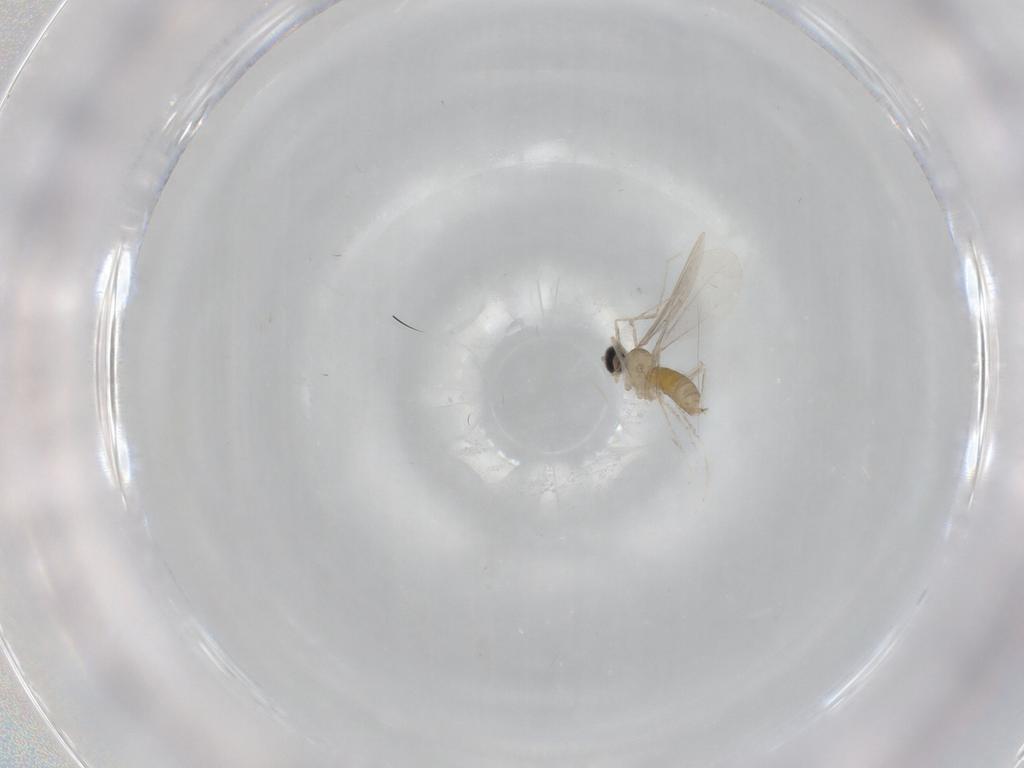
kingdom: Animalia
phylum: Arthropoda
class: Insecta
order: Diptera
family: Cecidomyiidae
